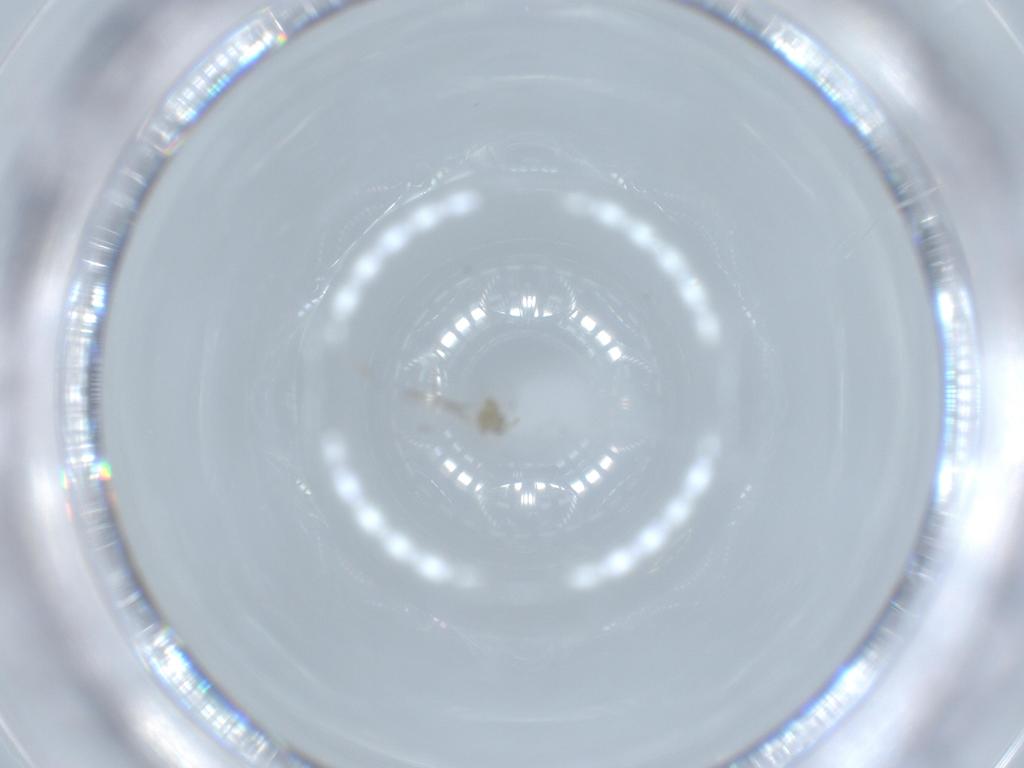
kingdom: Animalia
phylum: Arthropoda
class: Insecta
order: Diptera
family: Cecidomyiidae
